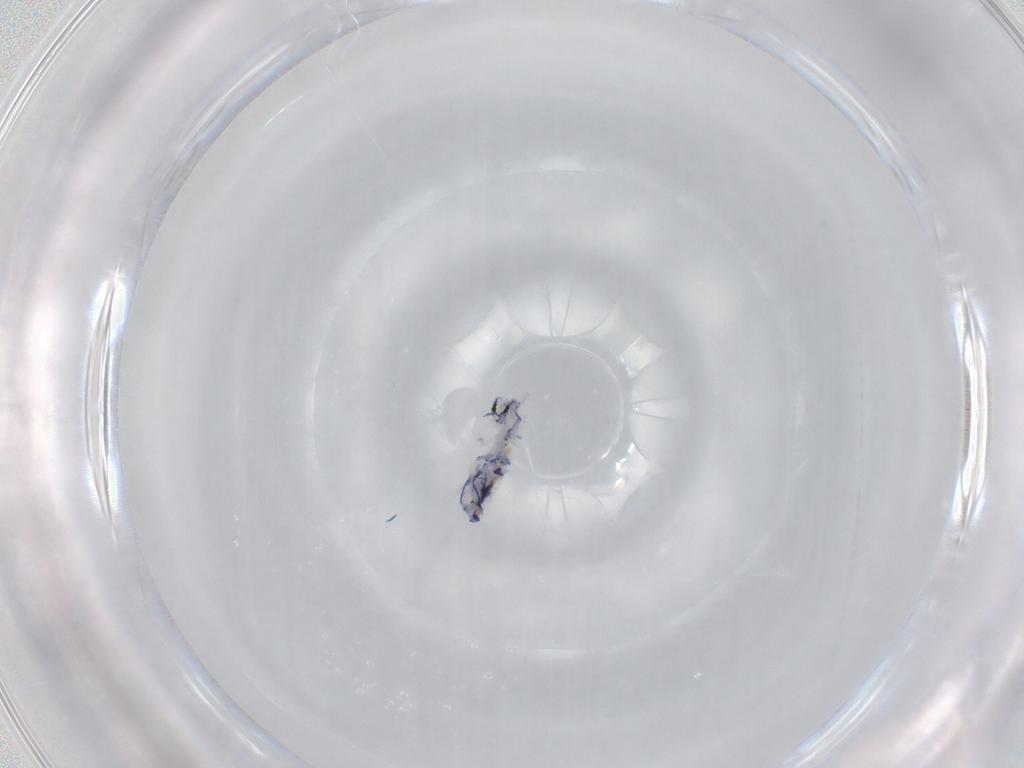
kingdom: Animalia
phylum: Arthropoda
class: Collembola
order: Entomobryomorpha
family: Entomobryidae
